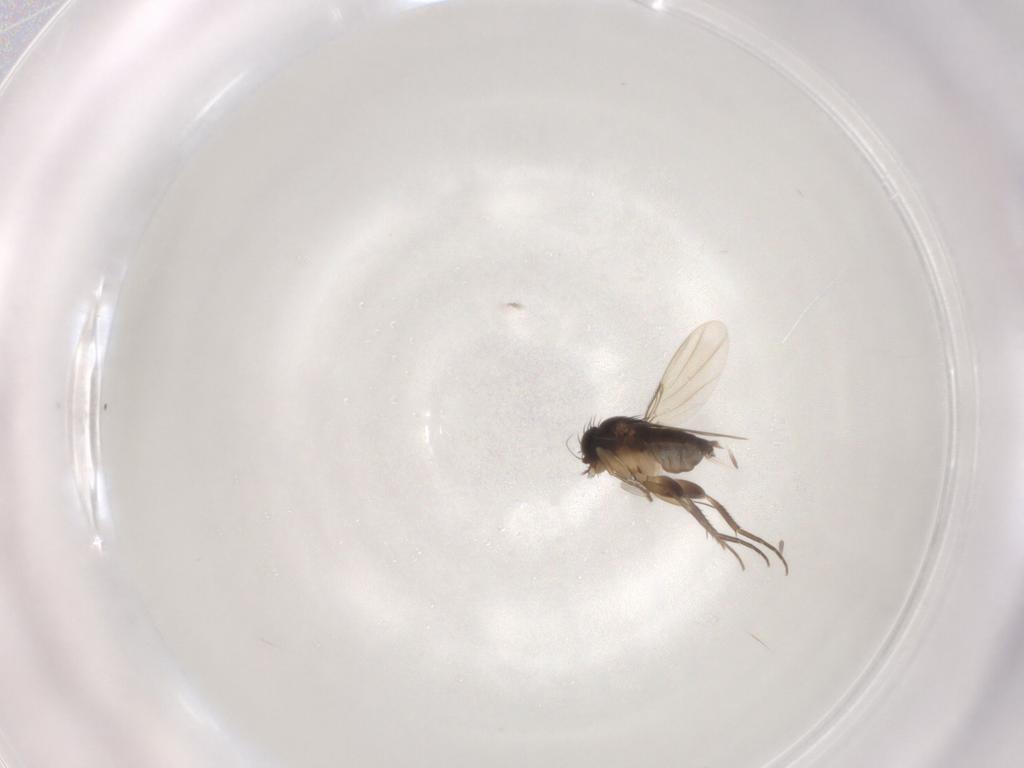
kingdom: Animalia
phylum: Arthropoda
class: Insecta
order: Diptera
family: Phoridae
